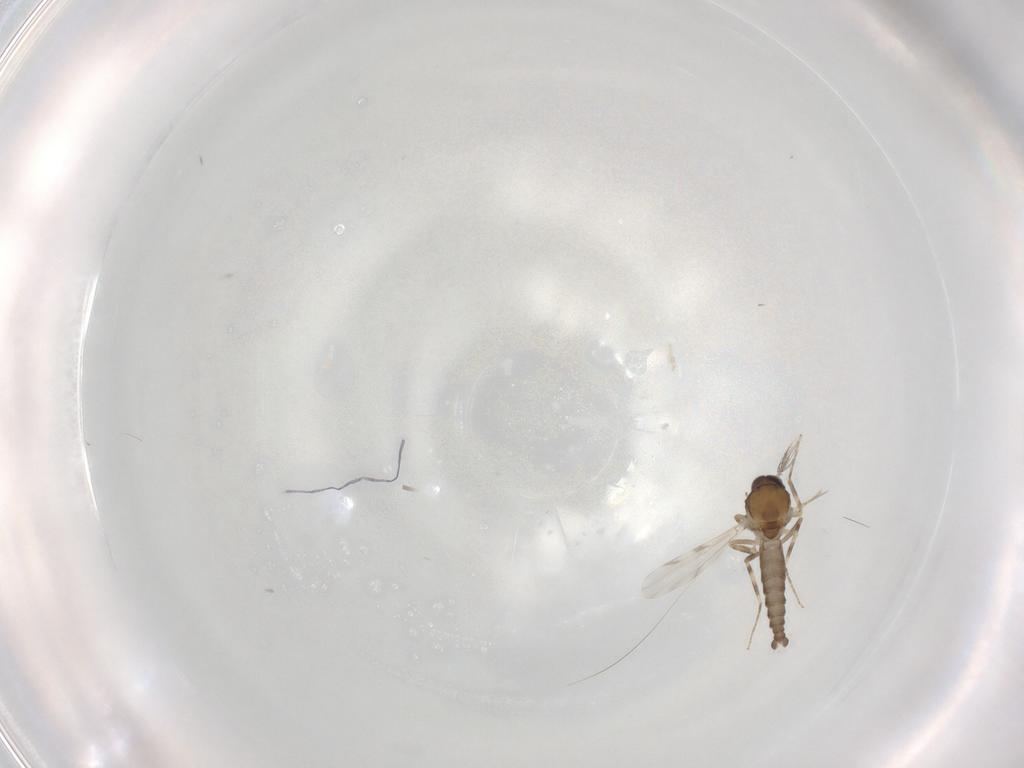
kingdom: Animalia
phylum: Arthropoda
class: Insecta
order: Diptera
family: Ceratopogonidae
